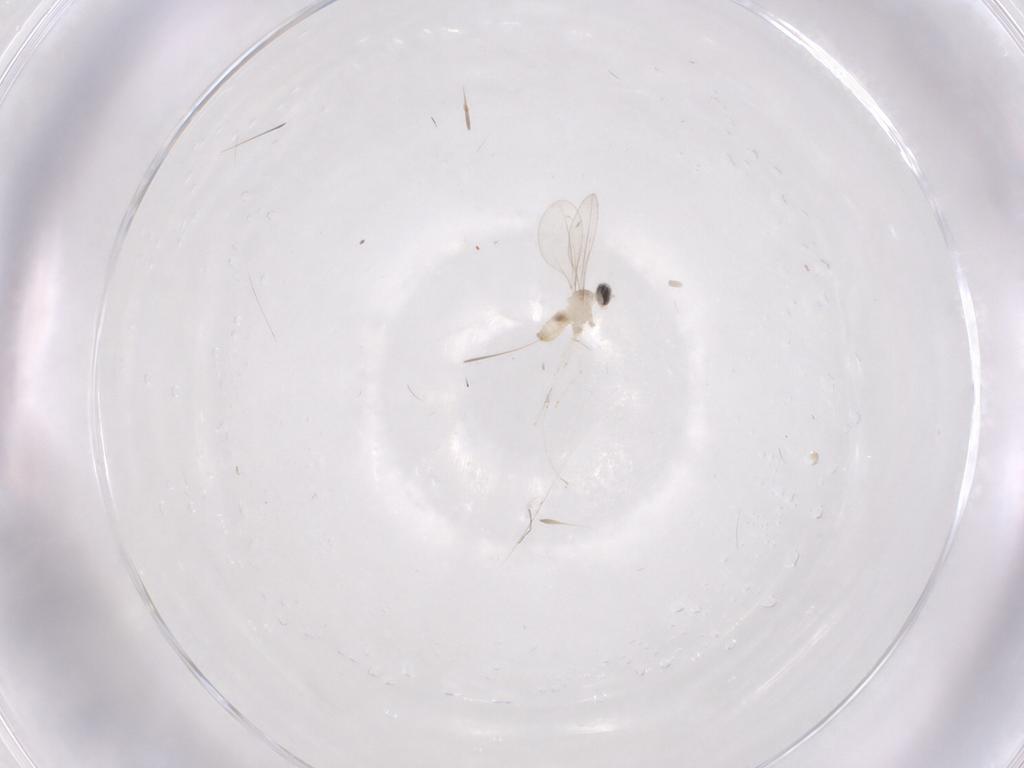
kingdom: Animalia
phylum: Arthropoda
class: Insecta
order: Diptera
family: Cecidomyiidae
